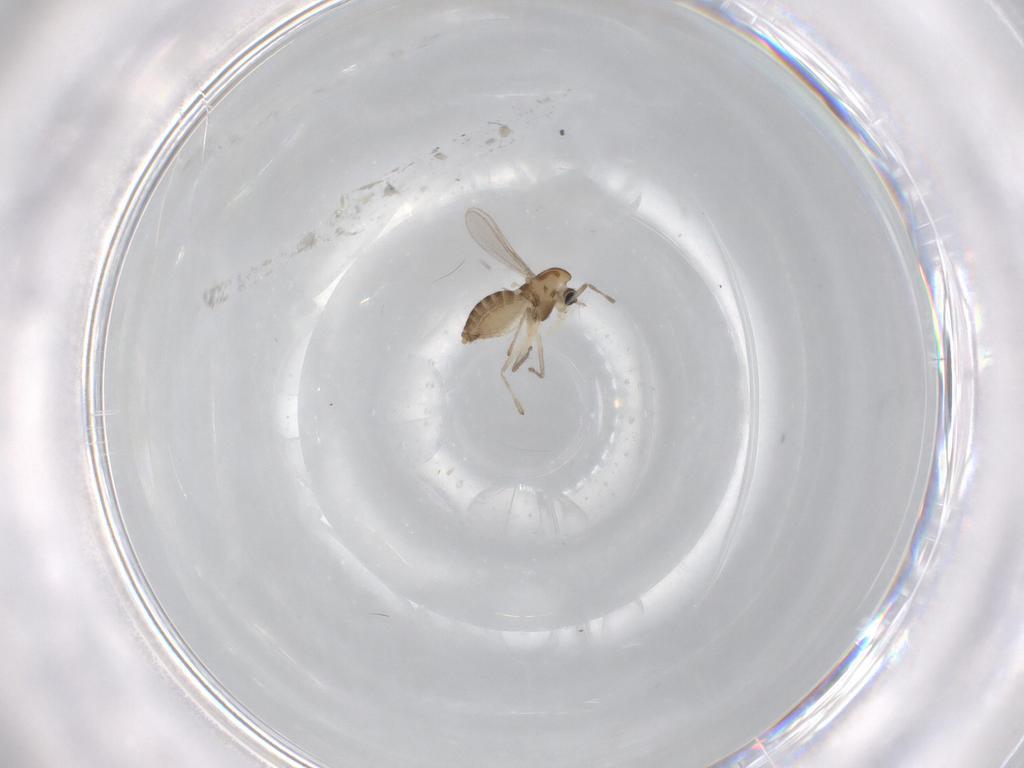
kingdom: Animalia
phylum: Arthropoda
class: Insecta
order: Diptera
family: Chironomidae
